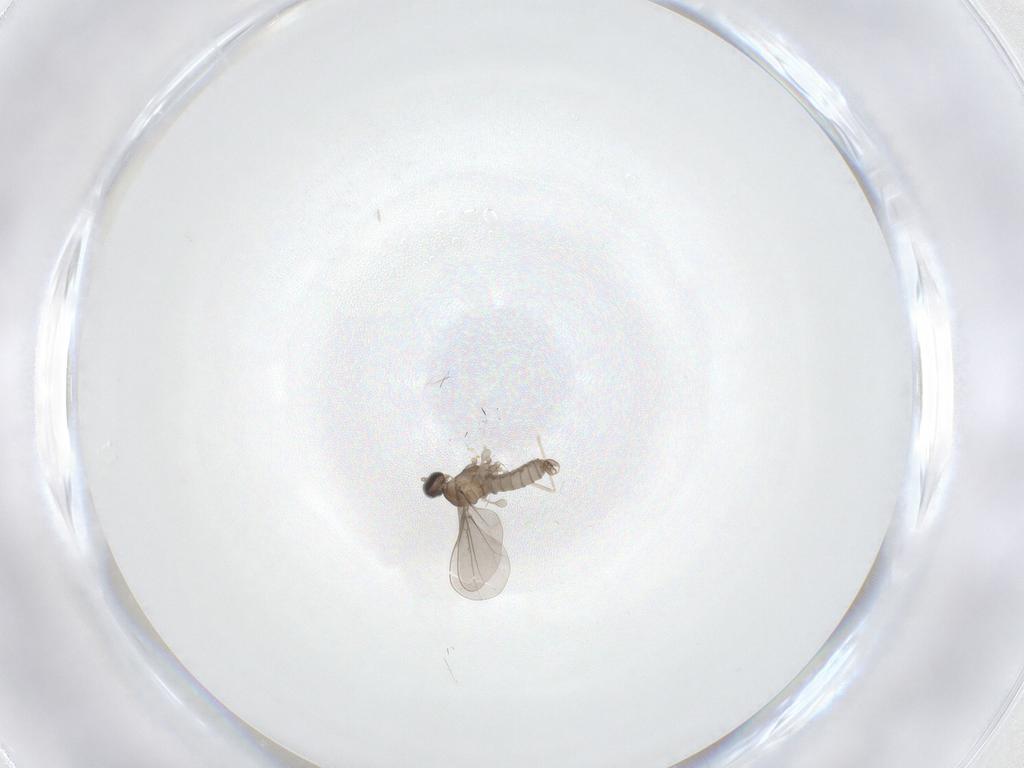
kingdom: Animalia
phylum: Arthropoda
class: Insecta
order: Diptera
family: Cecidomyiidae
